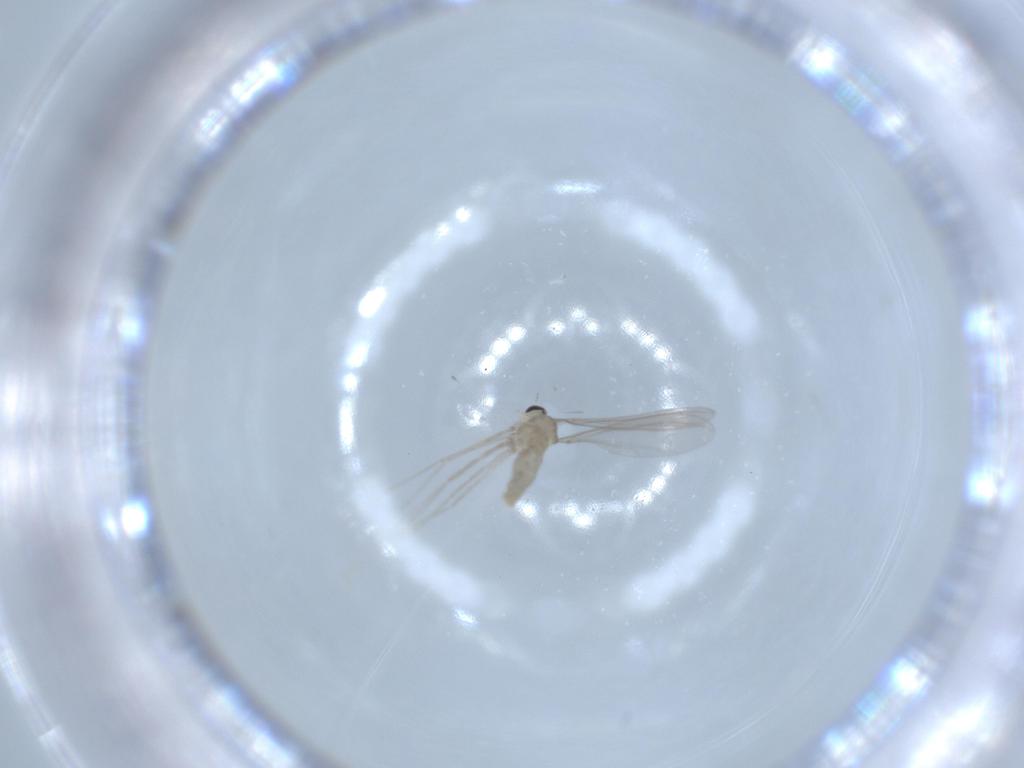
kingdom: Animalia
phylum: Arthropoda
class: Insecta
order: Diptera
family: Cecidomyiidae
